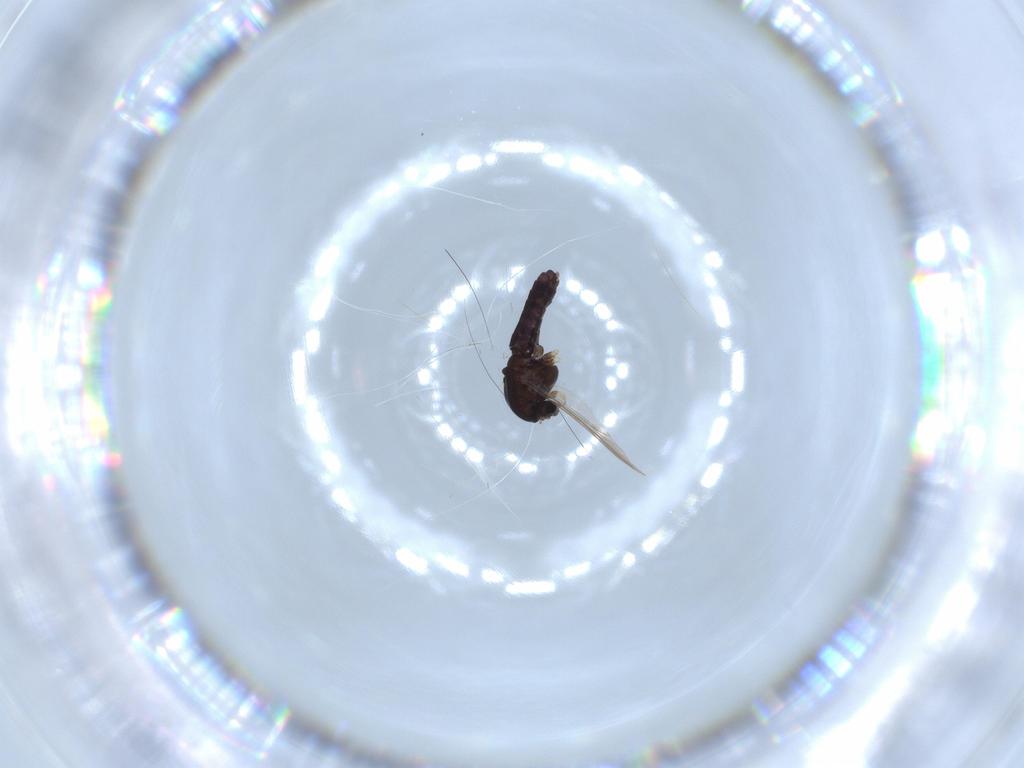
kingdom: Animalia
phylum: Arthropoda
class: Insecta
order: Diptera
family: Chironomidae
